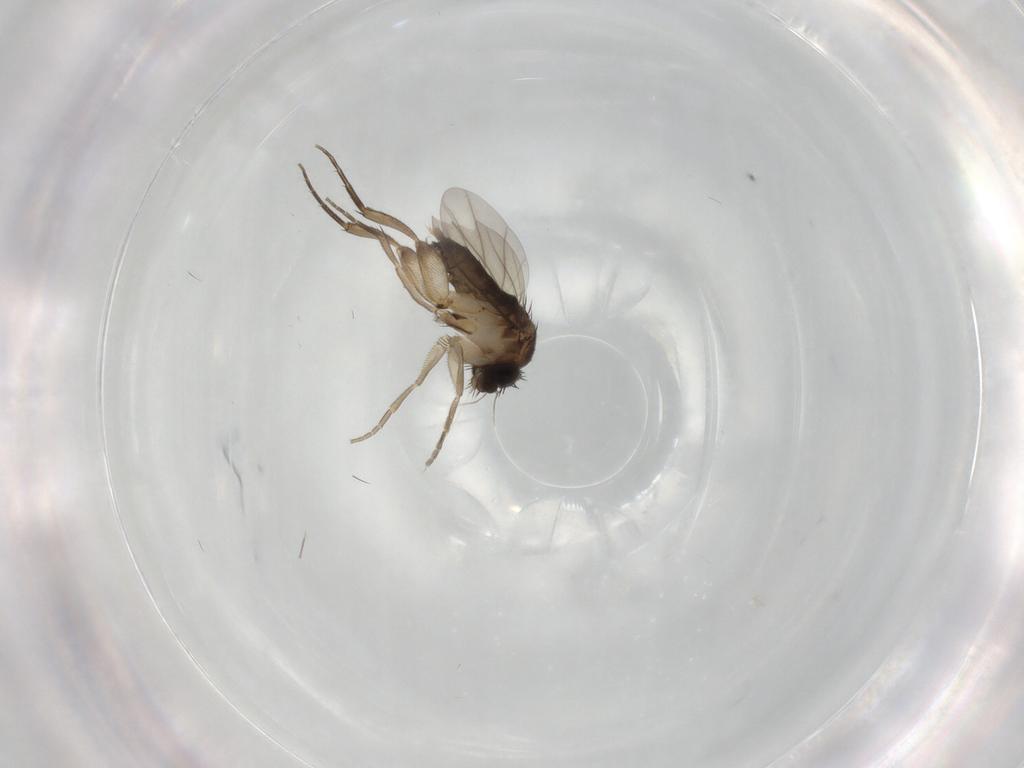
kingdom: Animalia
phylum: Arthropoda
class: Insecta
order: Diptera
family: Phoridae
